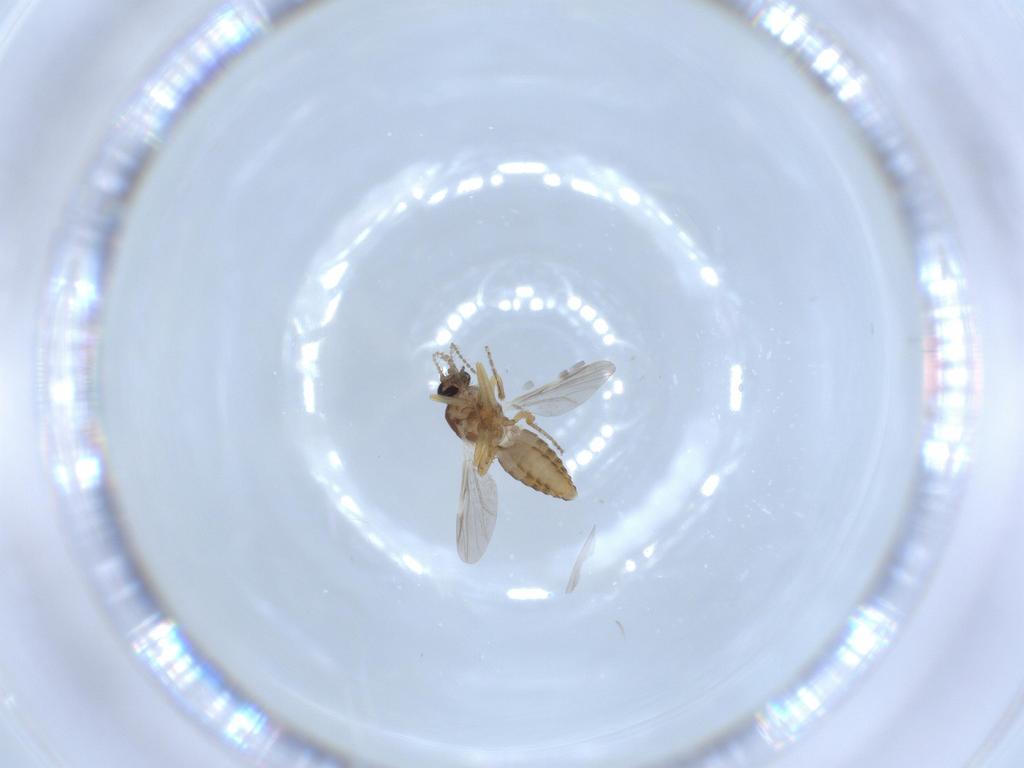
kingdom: Animalia
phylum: Arthropoda
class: Insecta
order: Diptera
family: Ceratopogonidae
